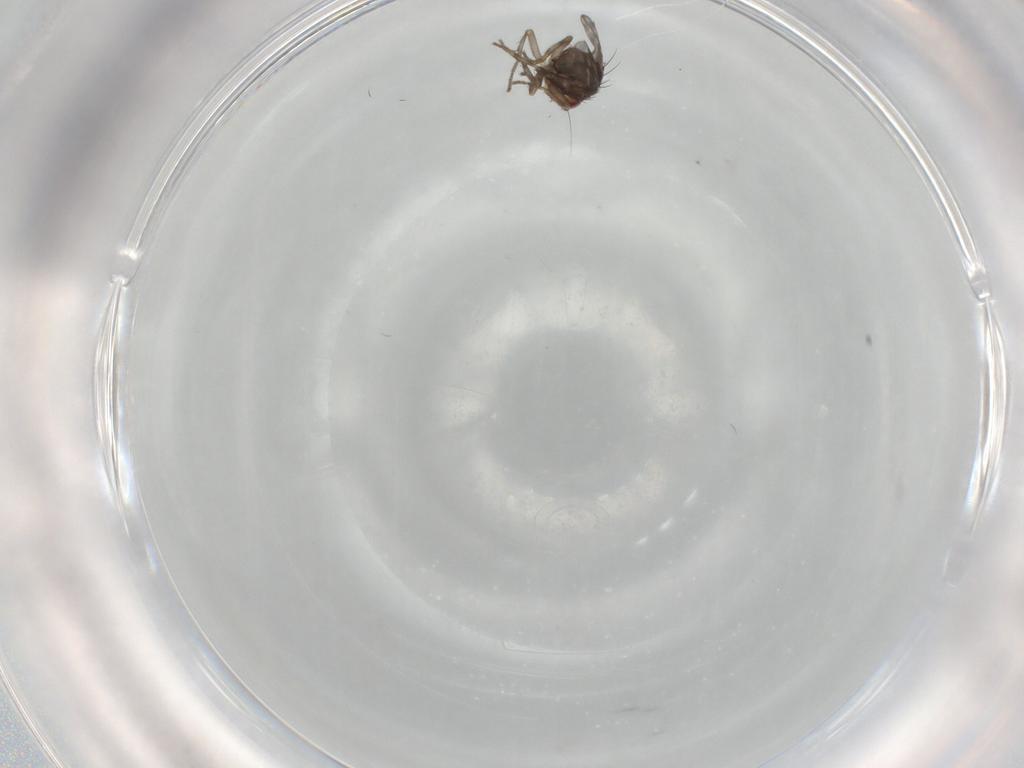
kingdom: Animalia
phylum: Arthropoda
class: Insecta
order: Diptera
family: Sphaeroceridae
